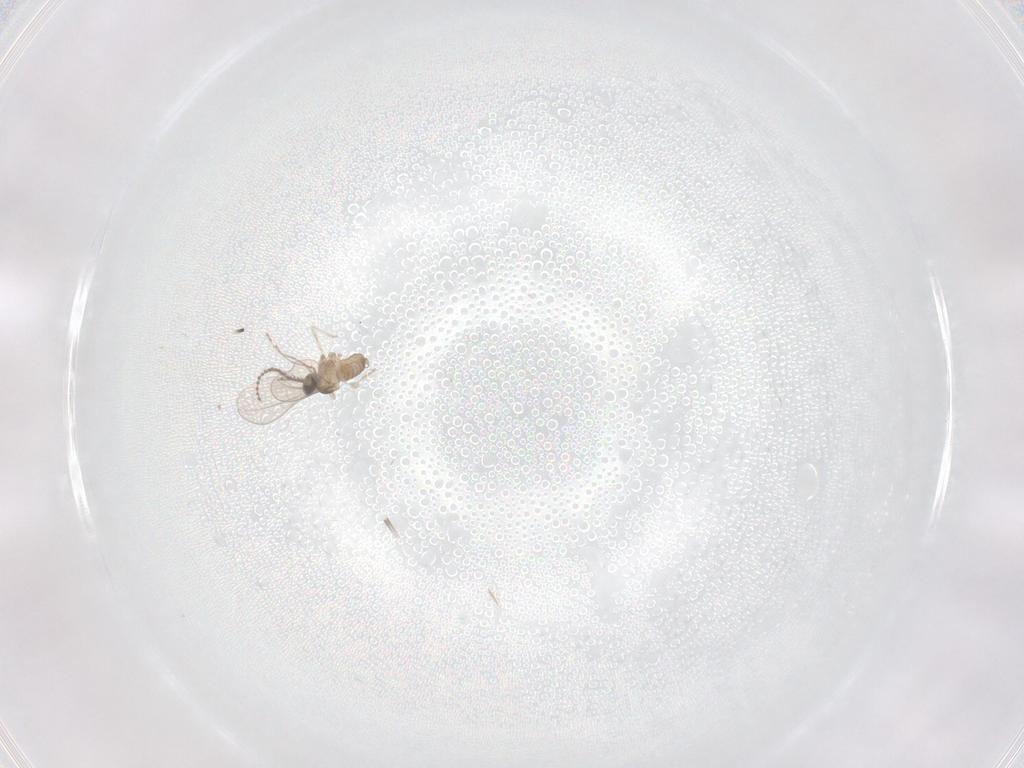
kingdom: Animalia
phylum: Arthropoda
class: Insecta
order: Diptera
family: Cecidomyiidae
